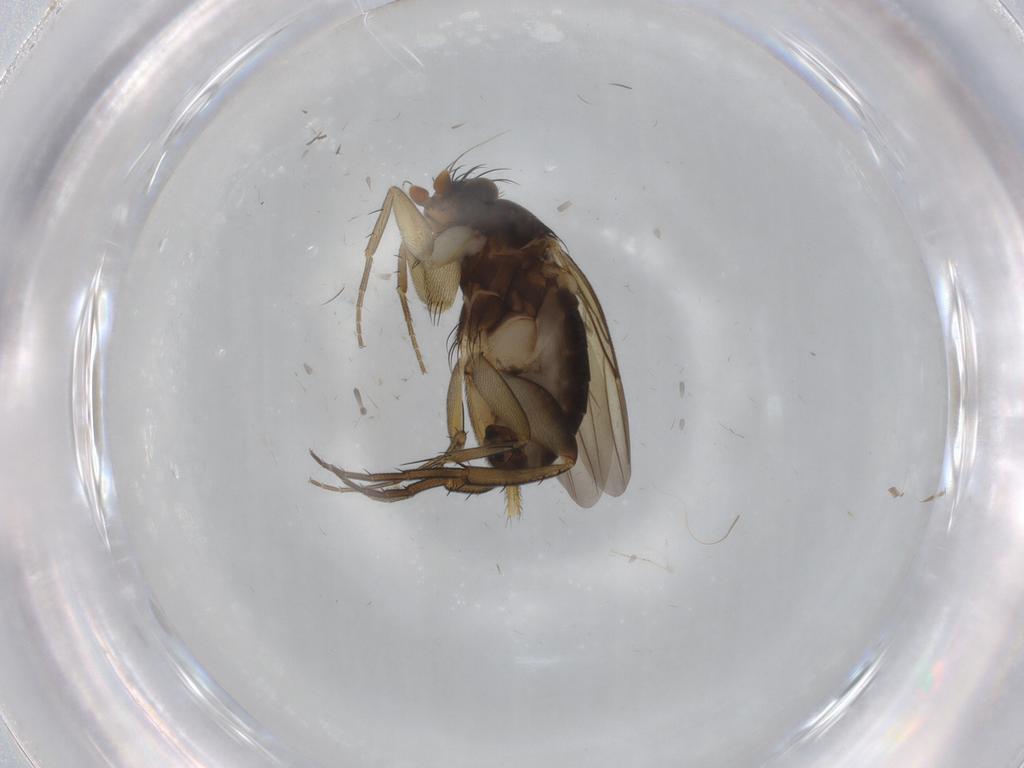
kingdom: Animalia
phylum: Arthropoda
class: Insecta
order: Diptera
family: Phoridae
